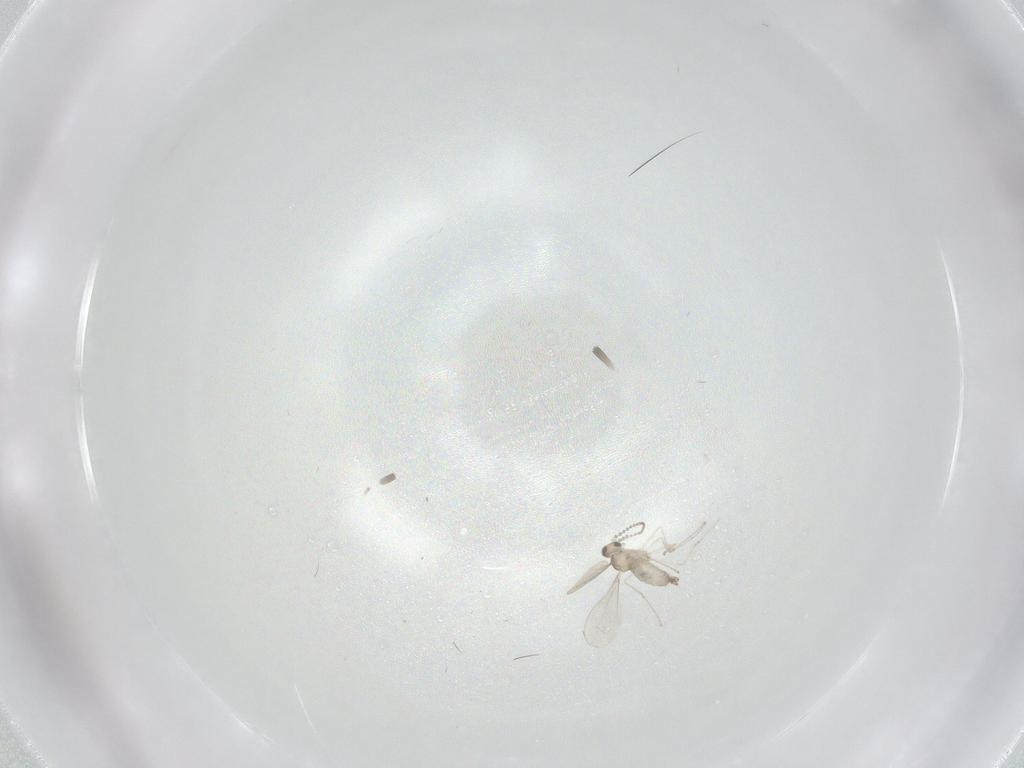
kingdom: Animalia
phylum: Arthropoda
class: Insecta
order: Diptera
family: Cecidomyiidae
